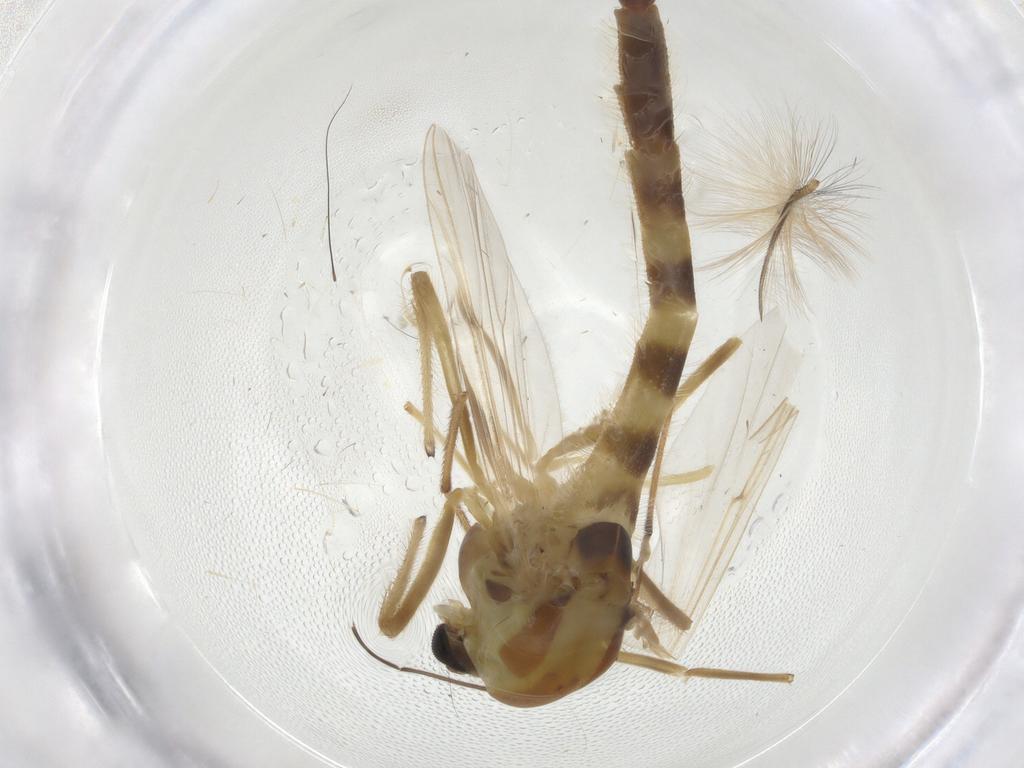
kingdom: Animalia
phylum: Arthropoda
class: Insecta
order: Diptera
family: Chironomidae
